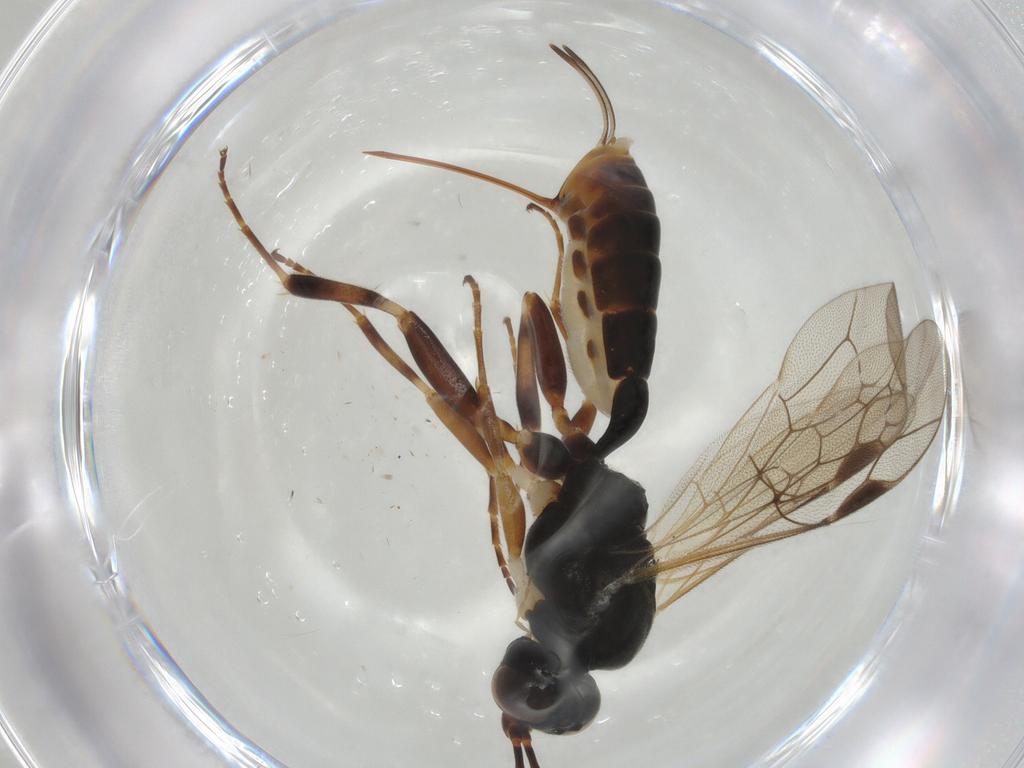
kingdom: Animalia
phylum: Arthropoda
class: Insecta
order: Hymenoptera
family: Ichneumonidae
